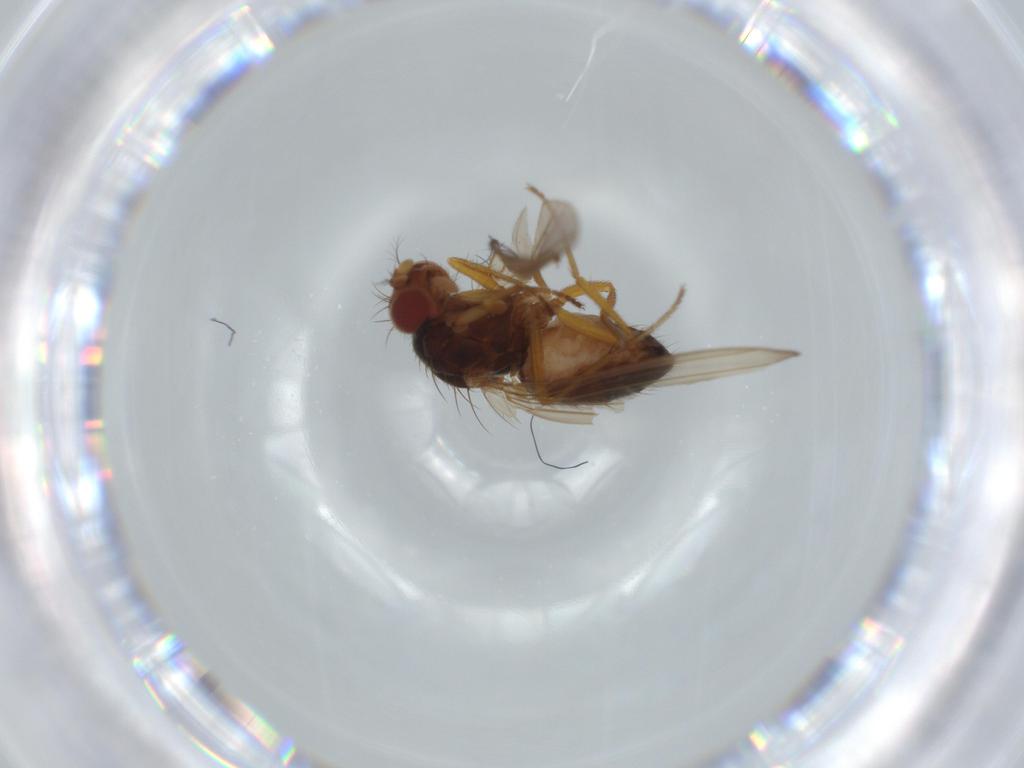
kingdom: Animalia
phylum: Arthropoda
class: Insecta
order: Diptera
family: Drosophilidae
